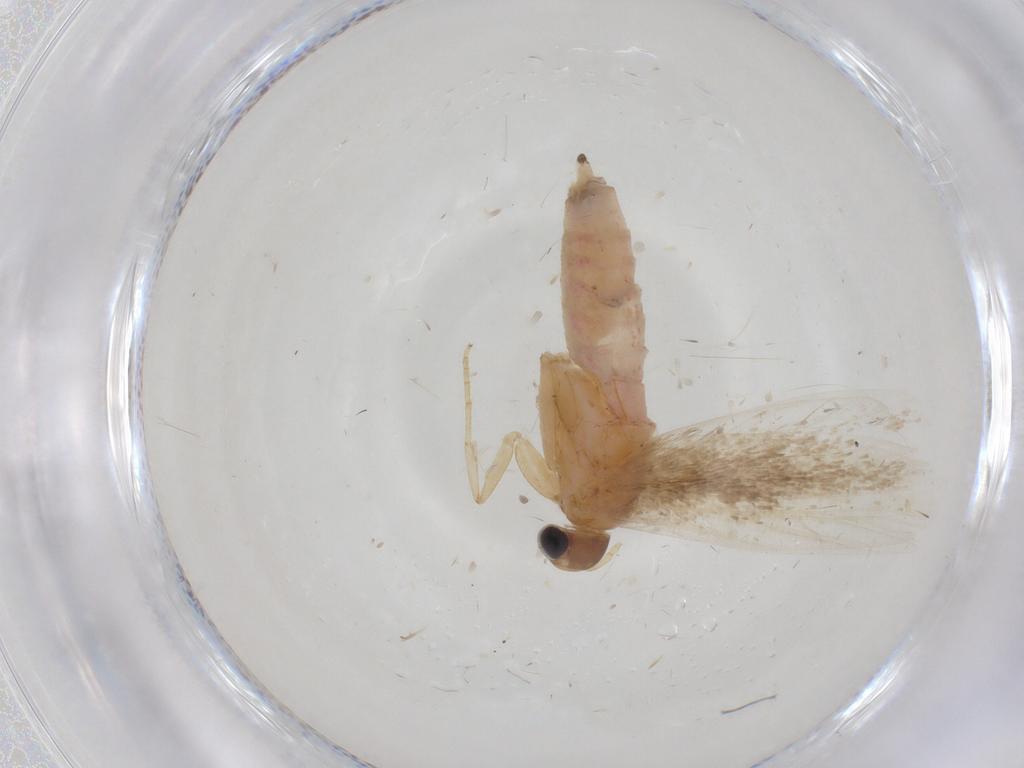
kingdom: Animalia
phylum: Arthropoda
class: Insecta
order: Lepidoptera
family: Gelechiidae
